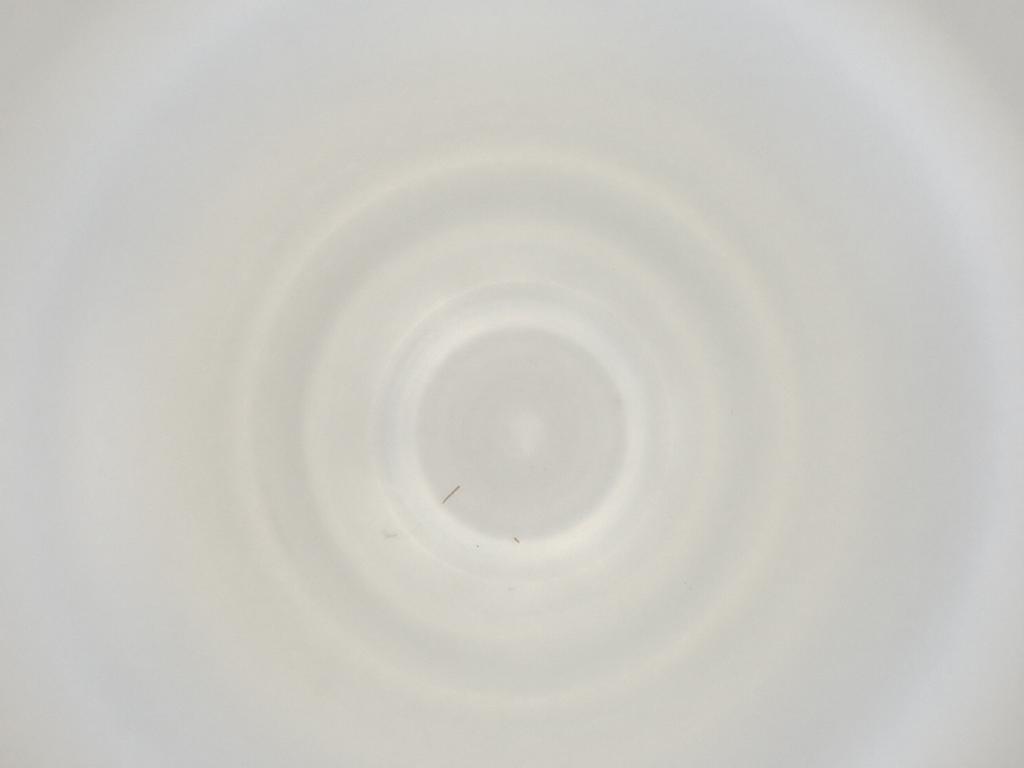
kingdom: Animalia
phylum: Arthropoda
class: Insecta
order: Diptera
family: Cecidomyiidae
